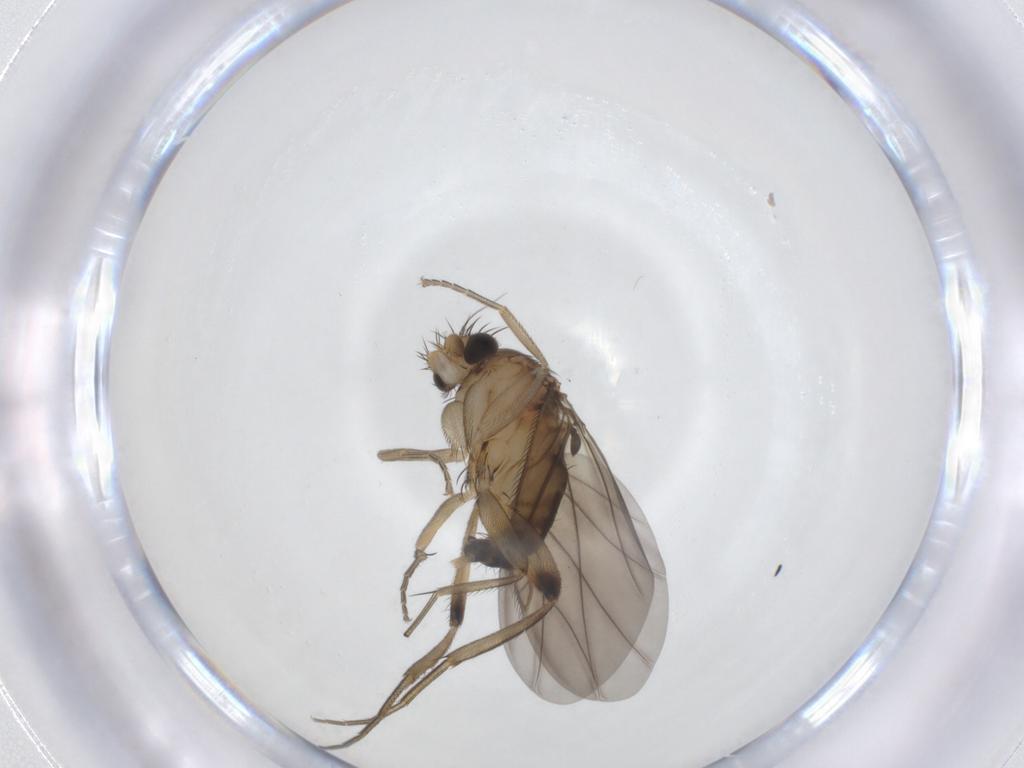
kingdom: Animalia
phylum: Arthropoda
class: Insecta
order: Diptera
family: Phoridae
